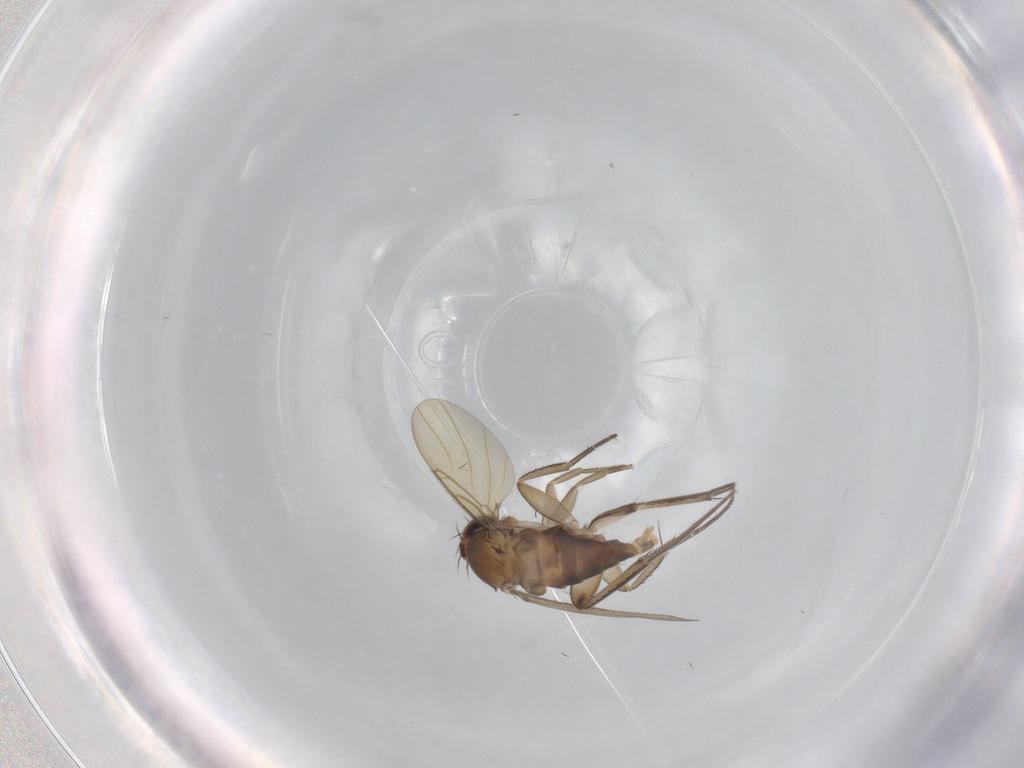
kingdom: Animalia
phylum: Arthropoda
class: Insecta
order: Diptera
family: Phoridae
